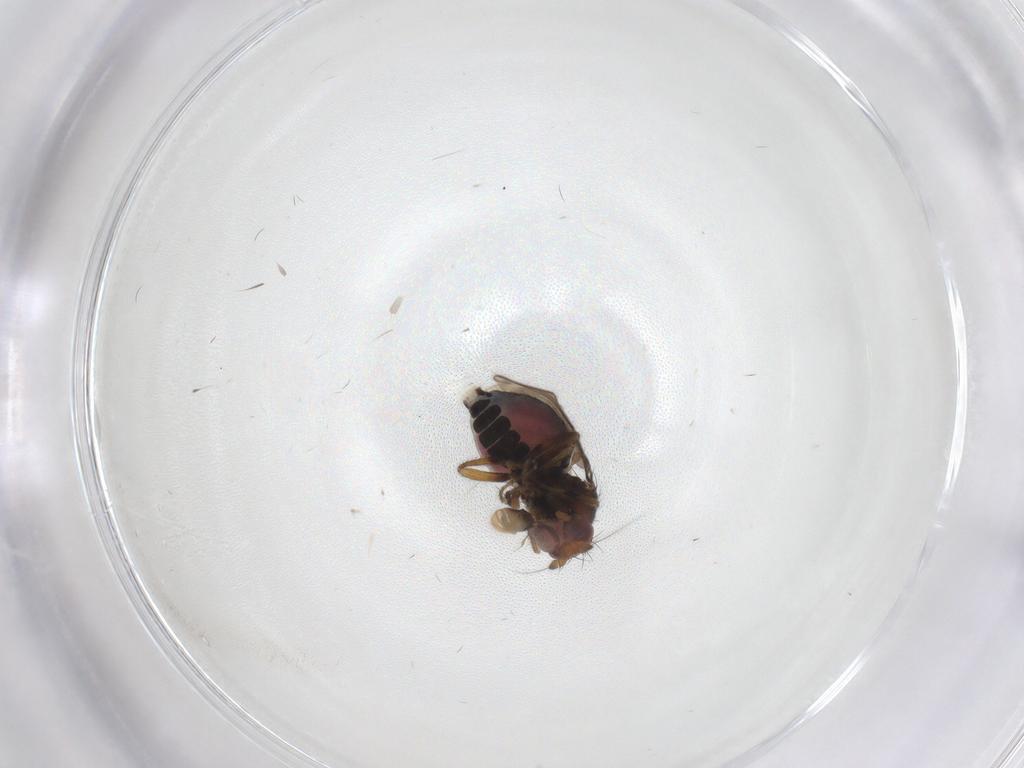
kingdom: Animalia
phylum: Arthropoda
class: Insecta
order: Diptera
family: Sphaeroceridae
